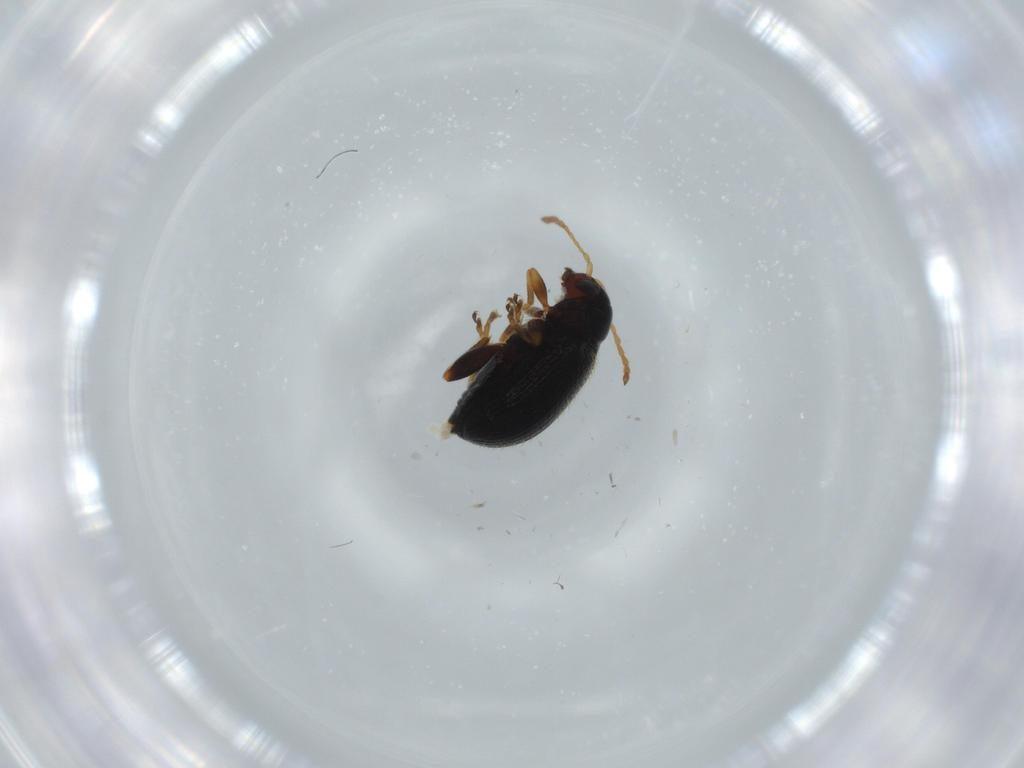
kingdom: Animalia
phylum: Arthropoda
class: Insecta
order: Coleoptera
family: Chrysomelidae
